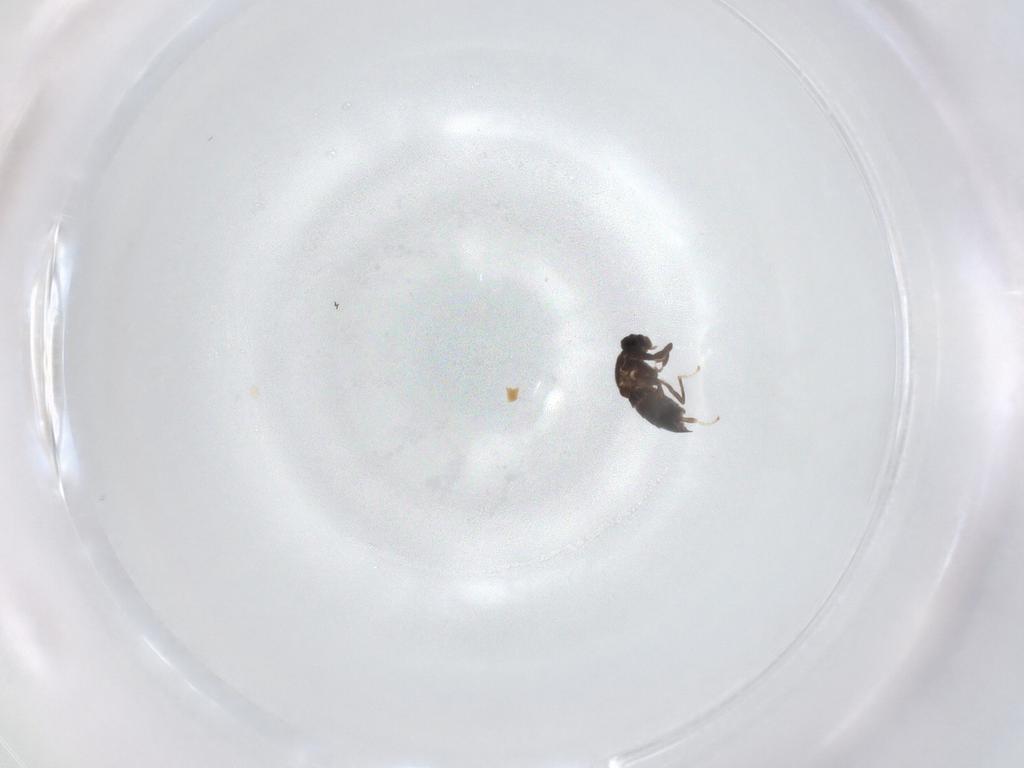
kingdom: Animalia
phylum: Arthropoda
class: Insecta
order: Diptera
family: Scatopsidae
